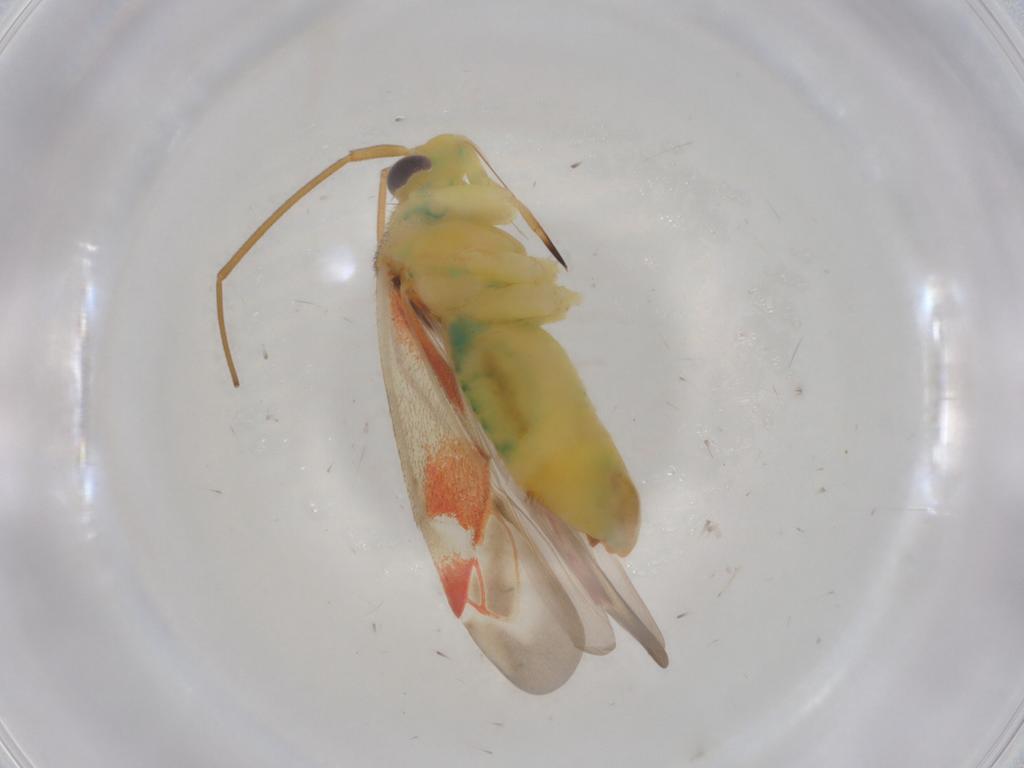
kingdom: Animalia
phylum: Arthropoda
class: Insecta
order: Hemiptera
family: Miridae
